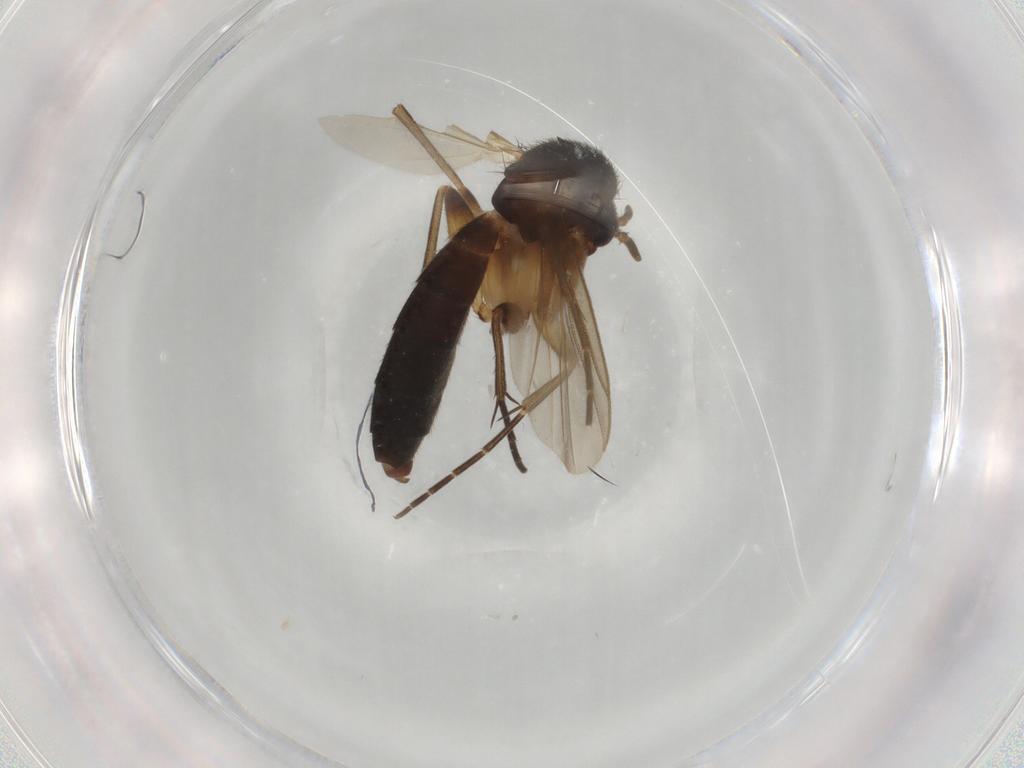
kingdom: Animalia
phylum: Arthropoda
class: Insecta
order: Diptera
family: Mycetophilidae
